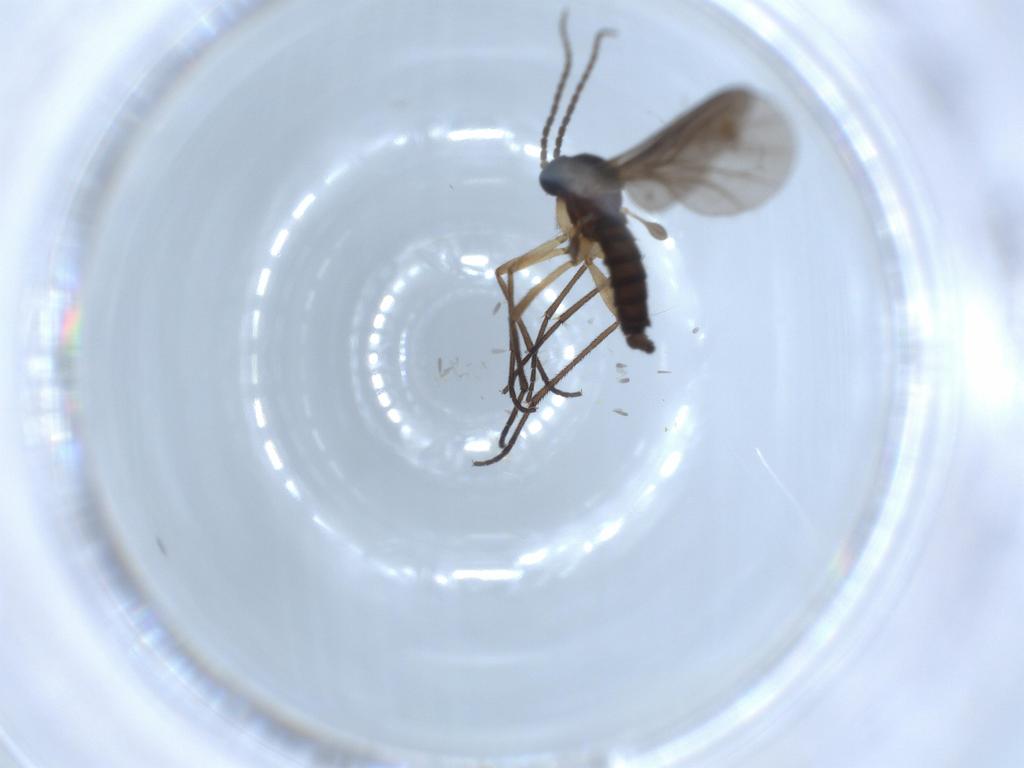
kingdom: Animalia
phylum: Arthropoda
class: Insecta
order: Diptera
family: Sciaridae
